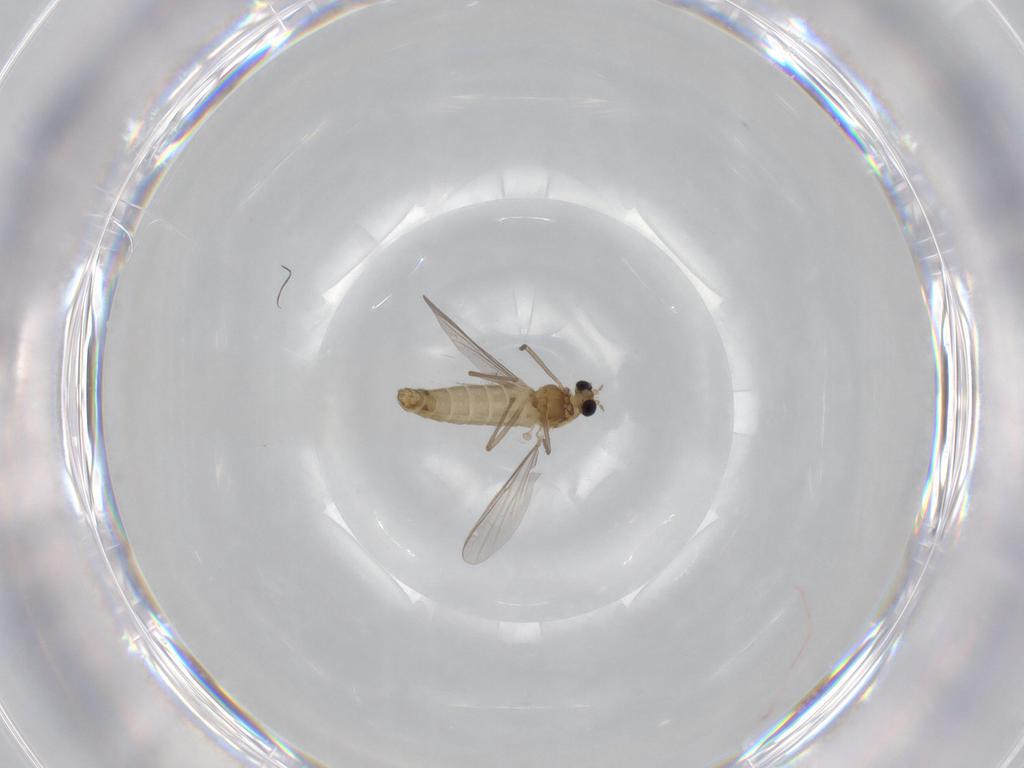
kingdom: Animalia
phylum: Arthropoda
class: Insecta
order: Diptera
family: Chironomidae
